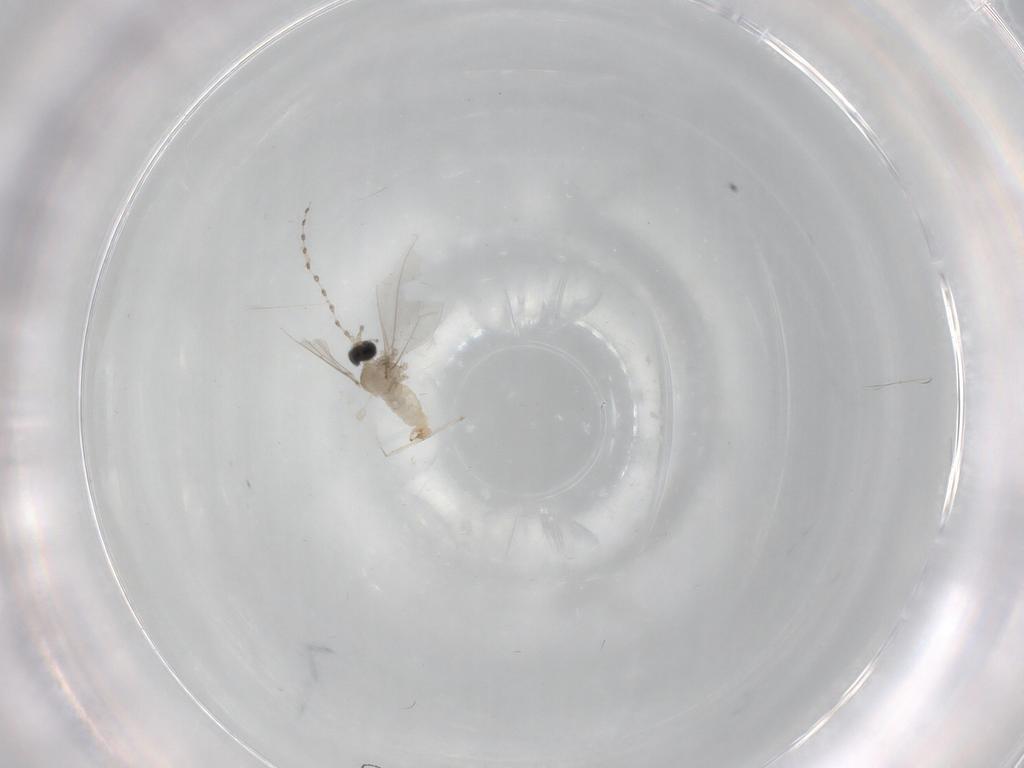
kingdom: Animalia
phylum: Arthropoda
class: Insecta
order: Diptera
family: Cecidomyiidae
